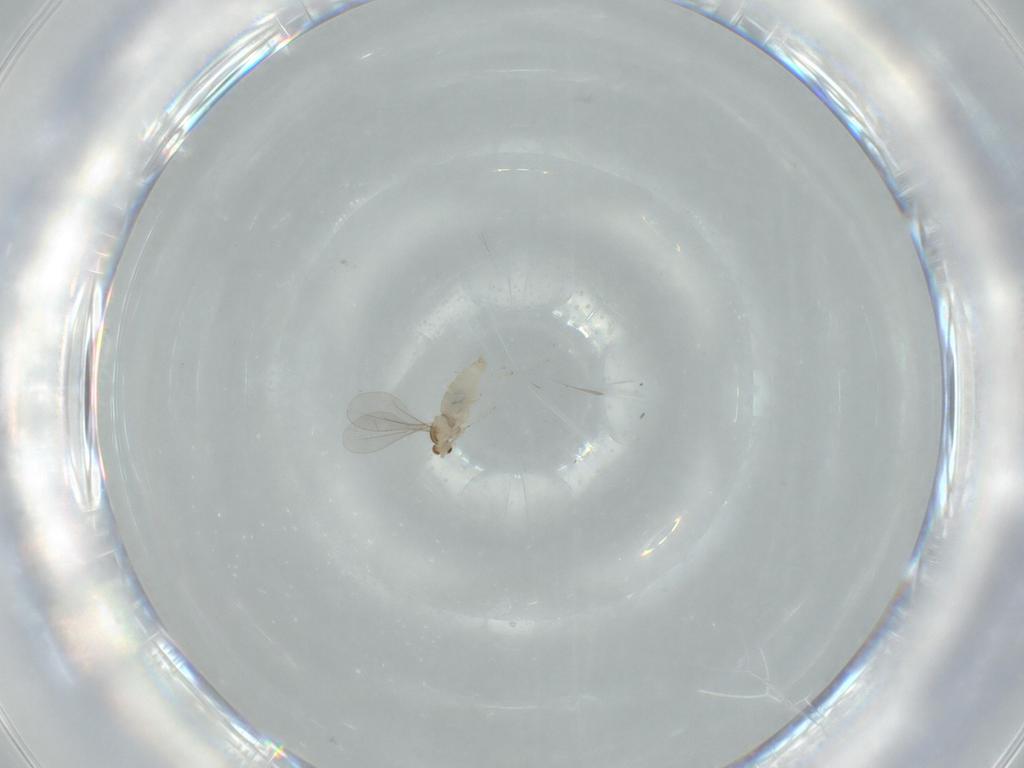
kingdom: Animalia
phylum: Arthropoda
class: Insecta
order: Diptera
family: Cecidomyiidae
